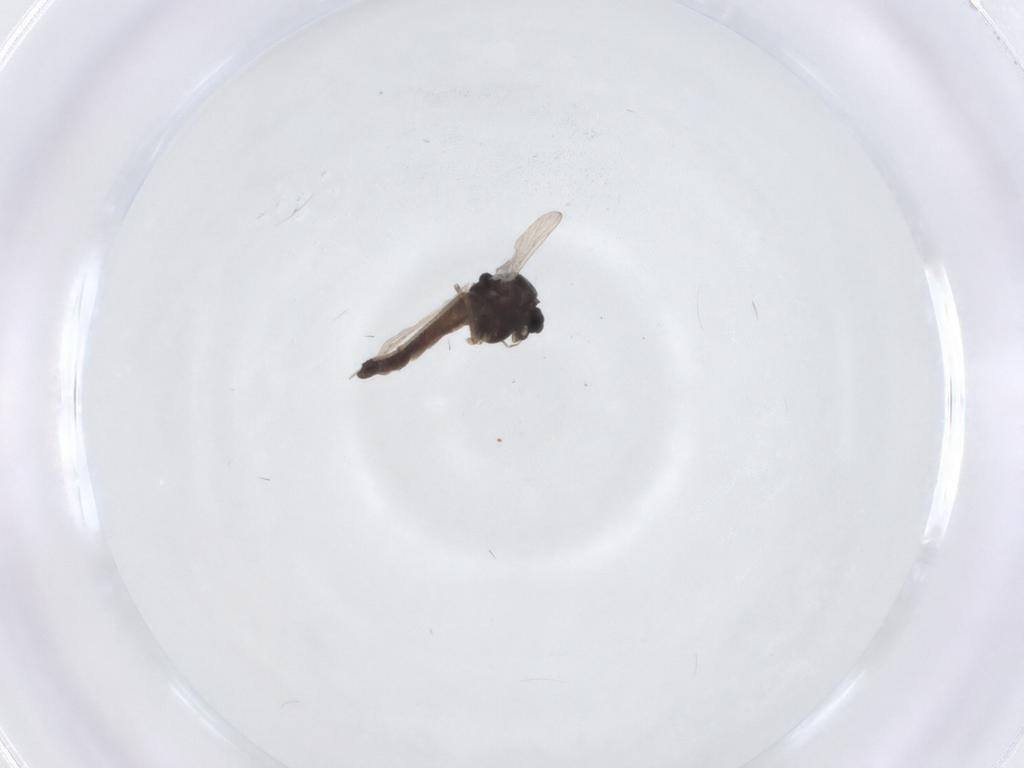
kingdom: Animalia
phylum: Arthropoda
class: Insecta
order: Diptera
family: Chironomidae
